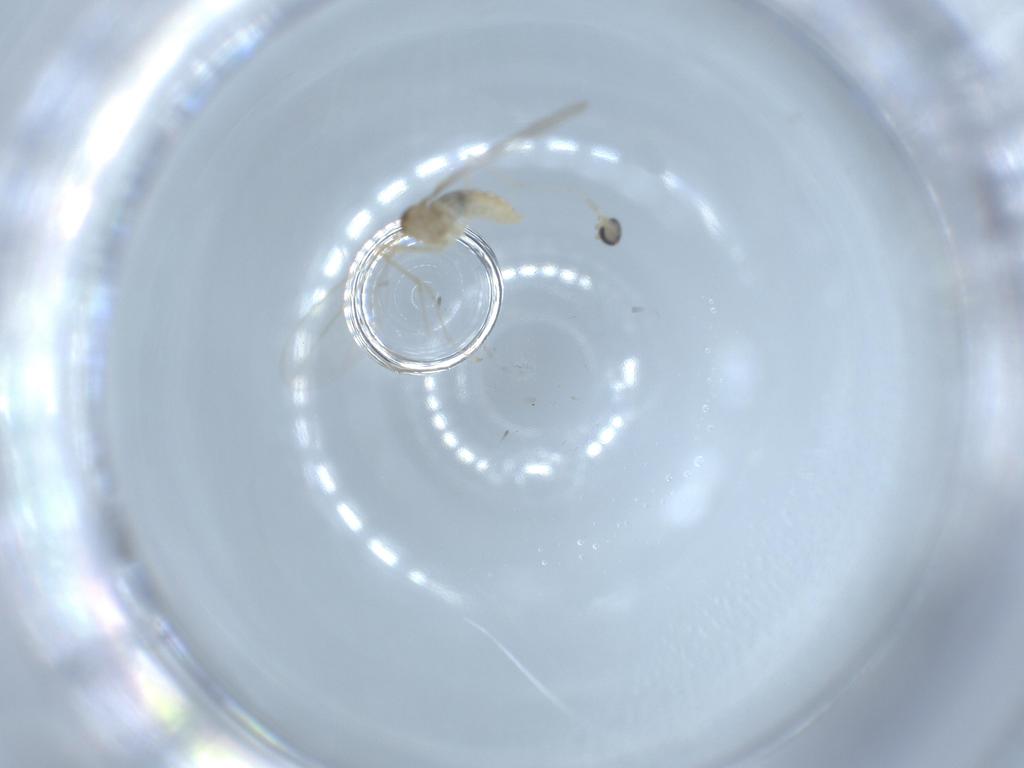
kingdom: Animalia
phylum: Arthropoda
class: Insecta
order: Diptera
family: Cecidomyiidae
